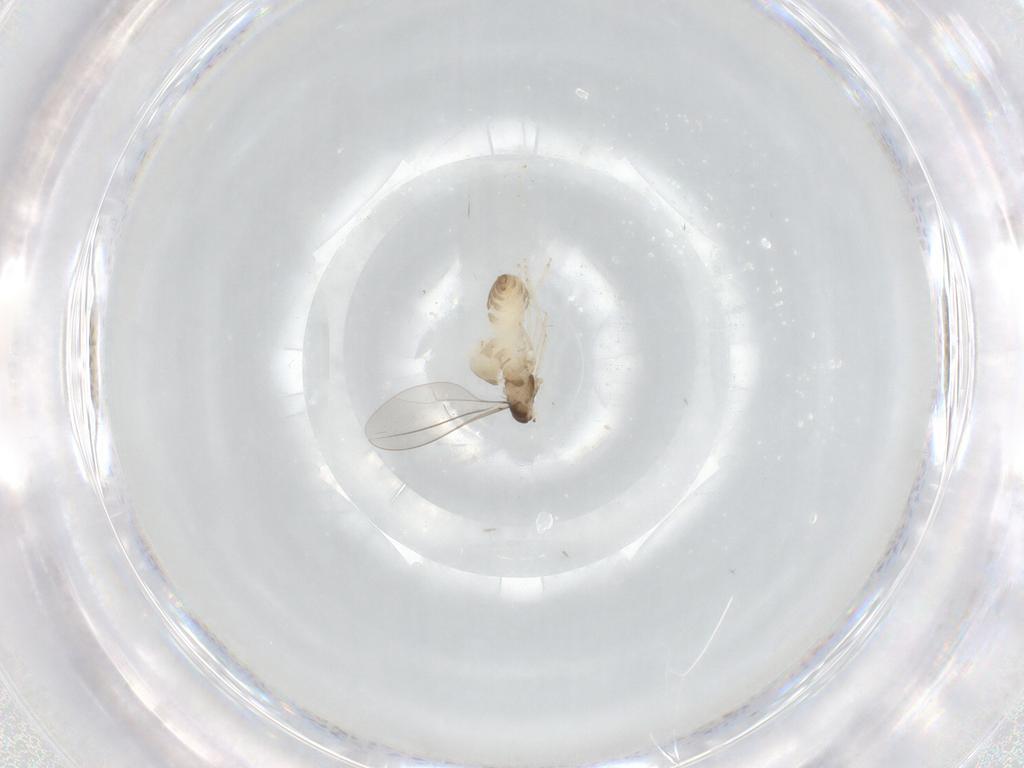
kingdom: Animalia
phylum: Arthropoda
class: Insecta
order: Diptera
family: Cecidomyiidae
